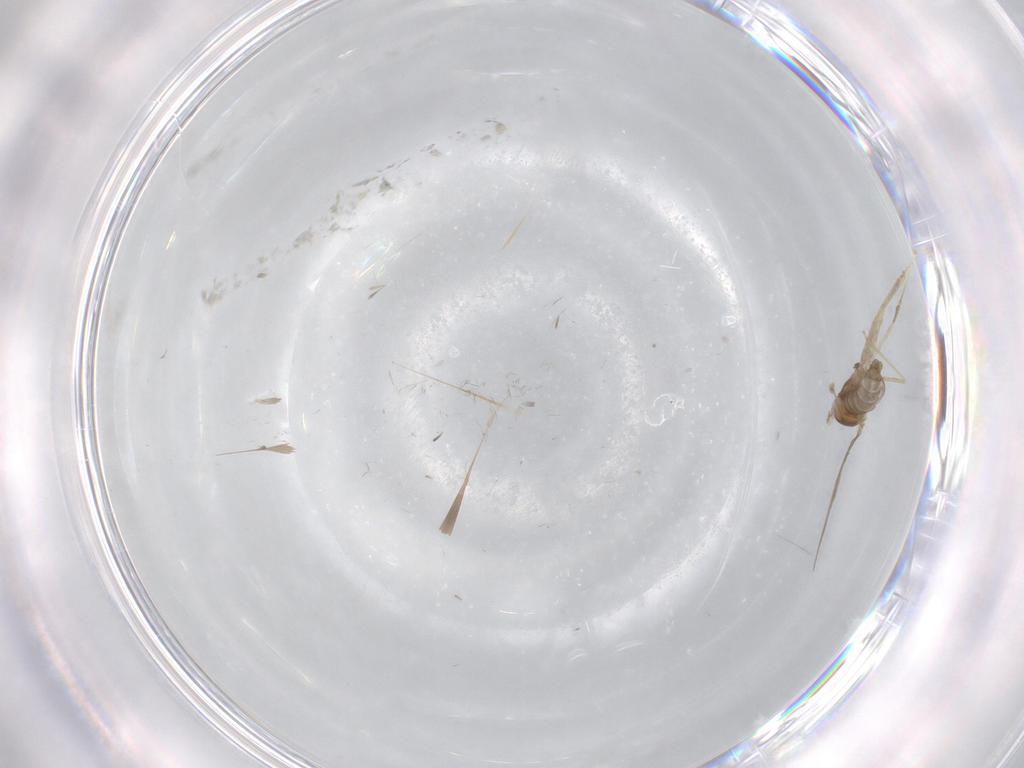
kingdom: Animalia
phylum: Arthropoda
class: Insecta
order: Diptera
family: Cecidomyiidae
